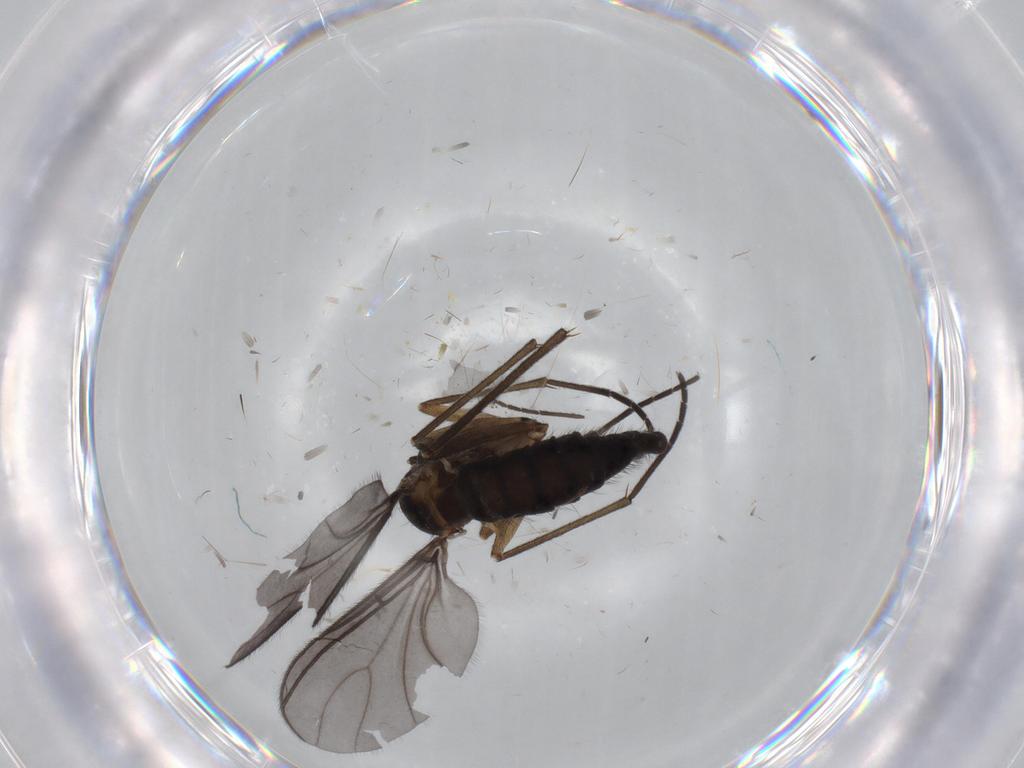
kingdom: Animalia
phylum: Arthropoda
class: Insecta
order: Diptera
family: Sciaridae
